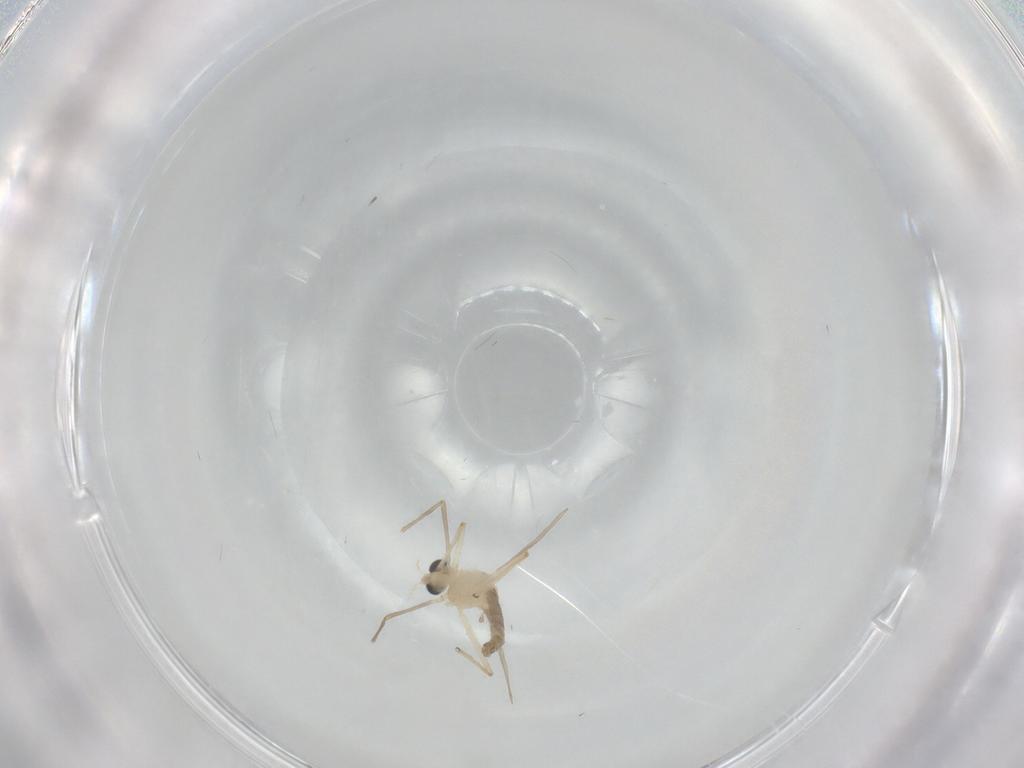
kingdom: Animalia
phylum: Arthropoda
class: Insecta
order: Diptera
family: Chironomidae
